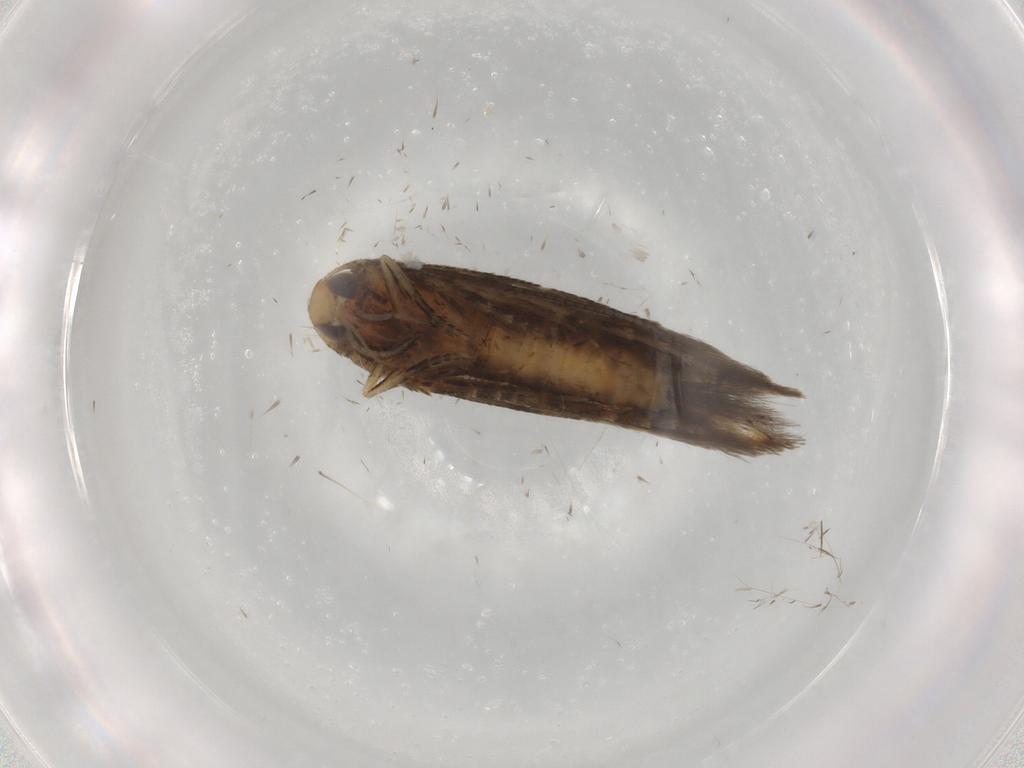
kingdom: Animalia
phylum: Arthropoda
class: Insecta
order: Lepidoptera
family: Cosmopterigidae
